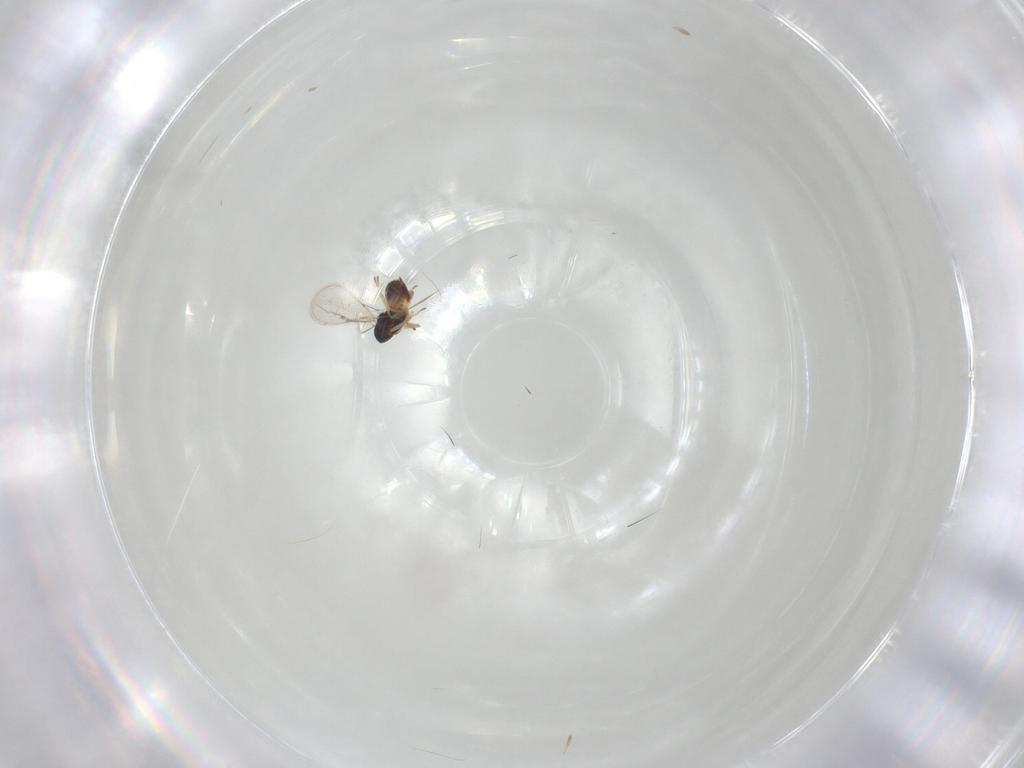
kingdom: Animalia
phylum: Arthropoda
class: Insecta
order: Hymenoptera
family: Eulophidae
